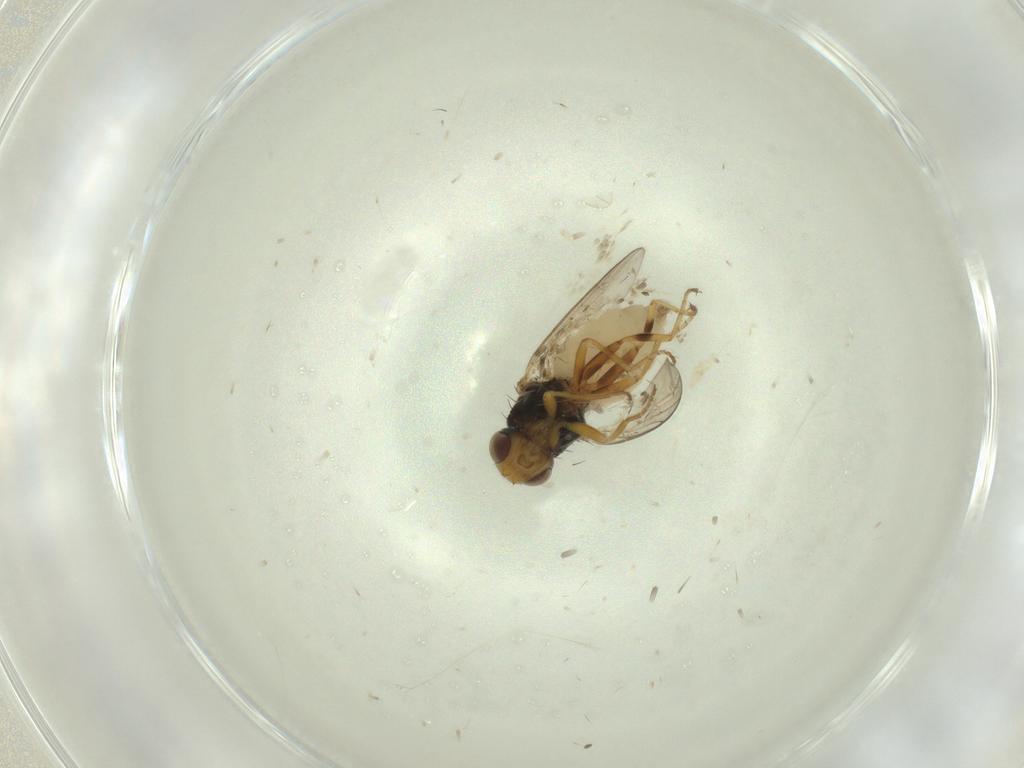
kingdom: Animalia
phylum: Arthropoda
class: Insecta
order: Diptera
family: Chloropidae
